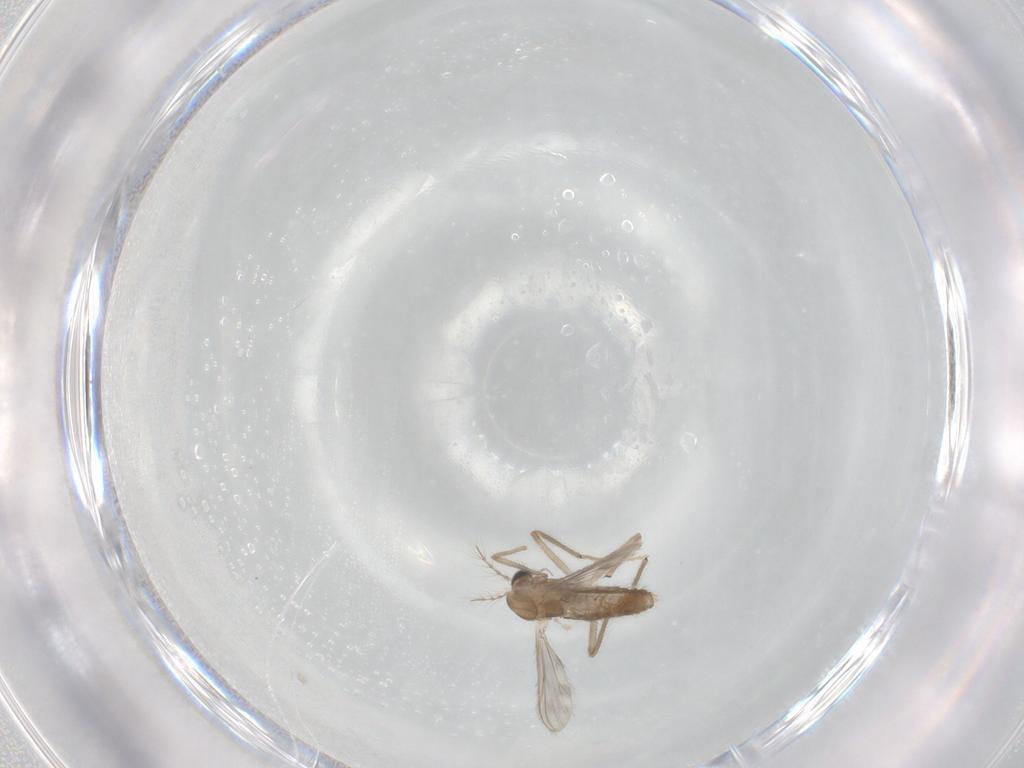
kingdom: Animalia
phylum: Arthropoda
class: Insecta
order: Diptera
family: Chironomidae
